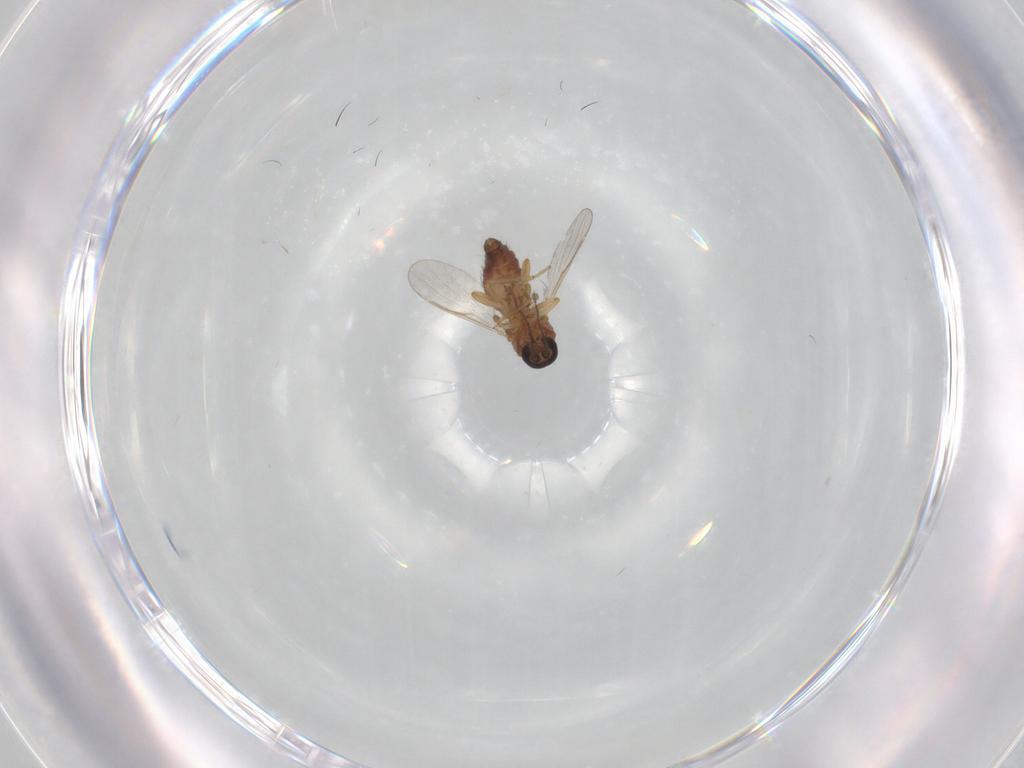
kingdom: Animalia
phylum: Arthropoda
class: Insecta
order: Diptera
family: Ceratopogonidae
